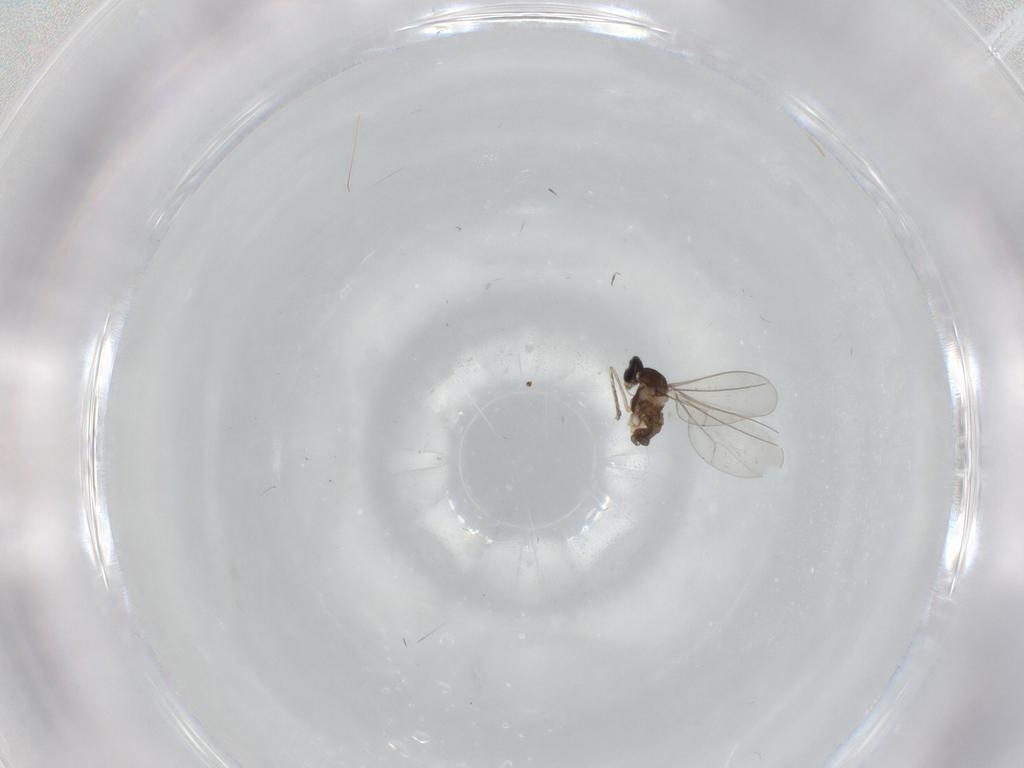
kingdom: Animalia
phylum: Arthropoda
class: Insecta
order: Diptera
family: Cecidomyiidae
